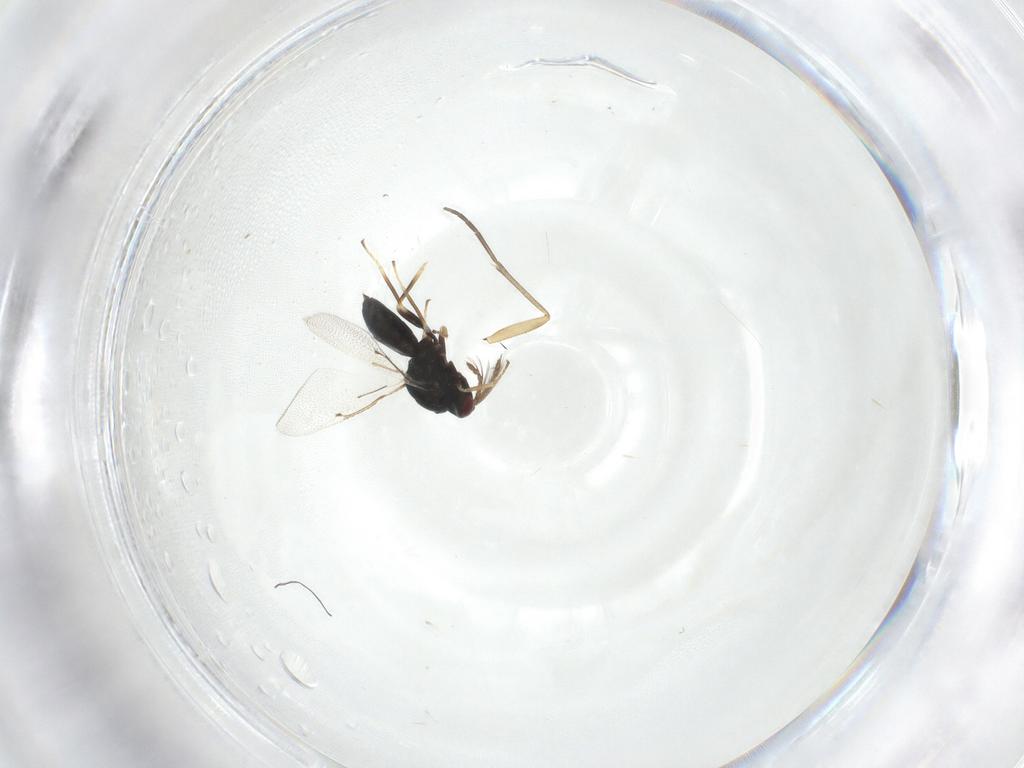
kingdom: Animalia
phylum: Arthropoda
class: Insecta
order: Hymenoptera
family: Eulophidae
